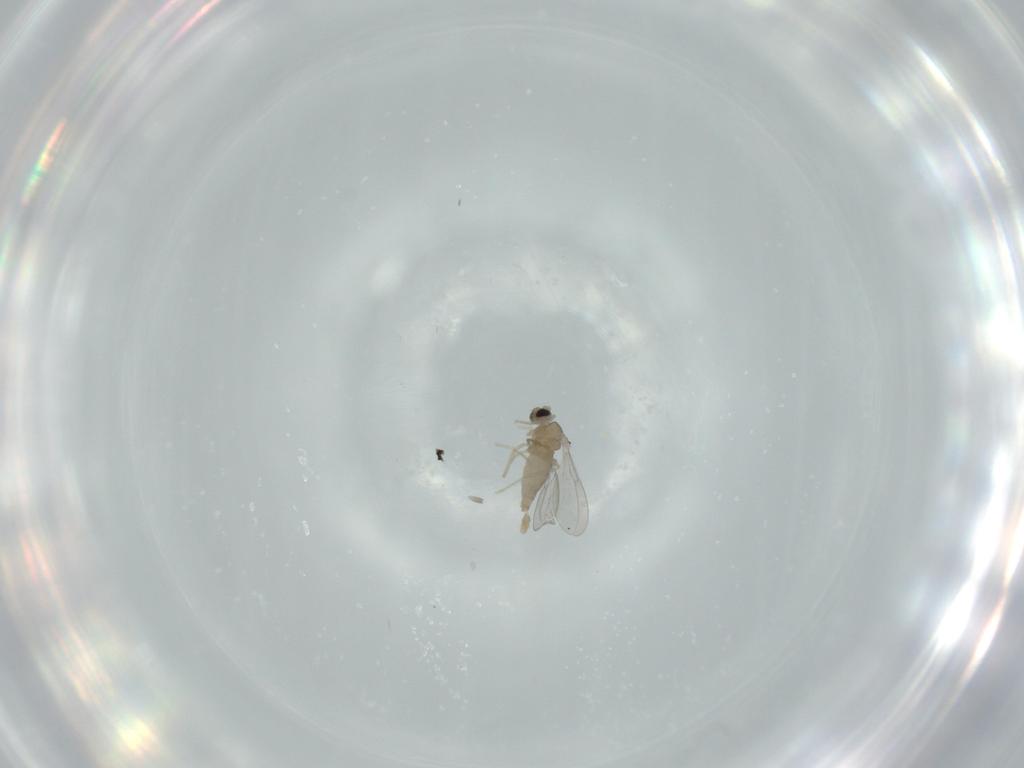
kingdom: Animalia
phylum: Arthropoda
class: Insecta
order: Diptera
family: Cecidomyiidae
